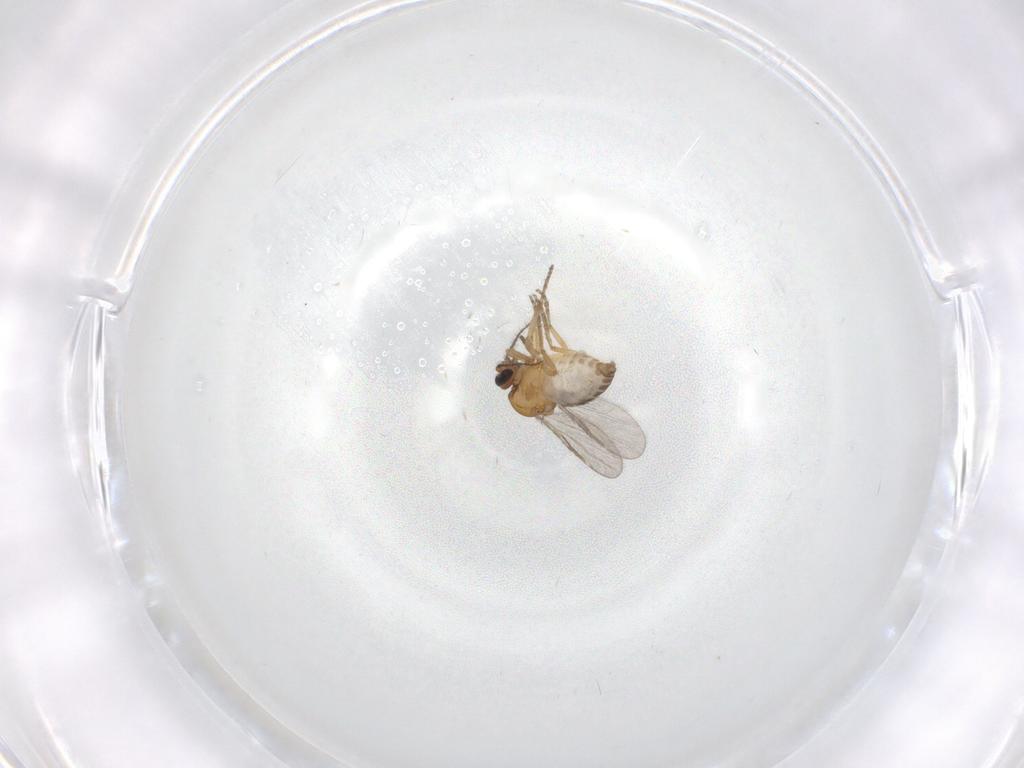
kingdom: Animalia
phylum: Arthropoda
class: Insecta
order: Diptera
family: Ceratopogonidae
